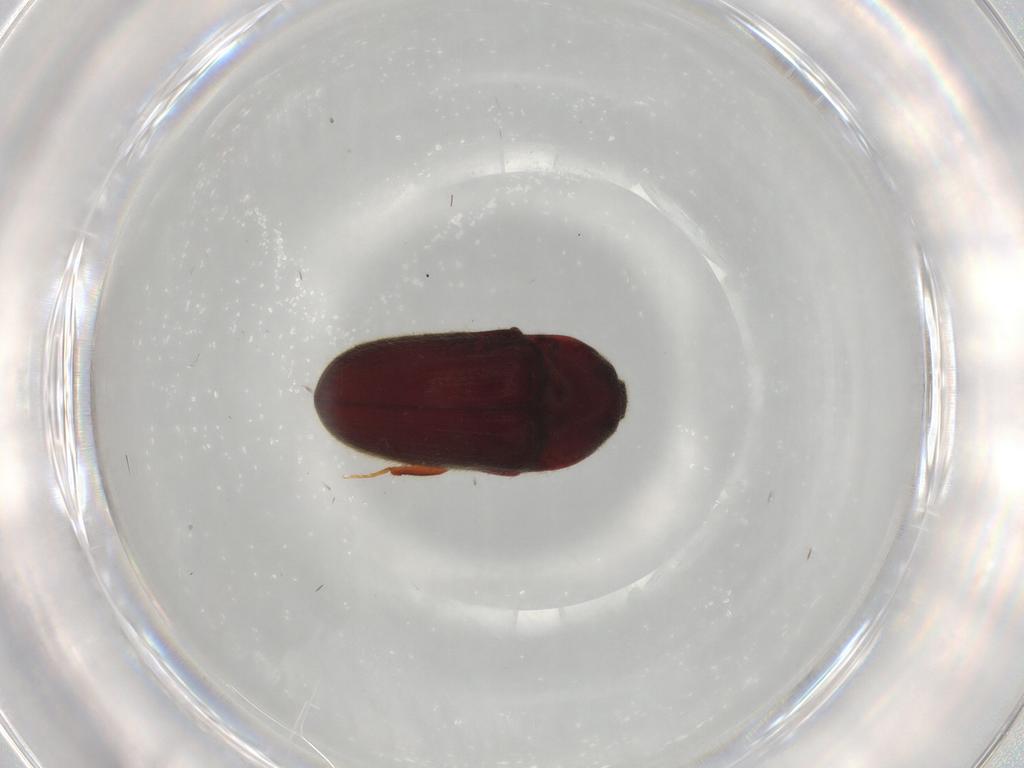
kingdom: Animalia
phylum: Arthropoda
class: Insecta
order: Coleoptera
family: Throscidae
